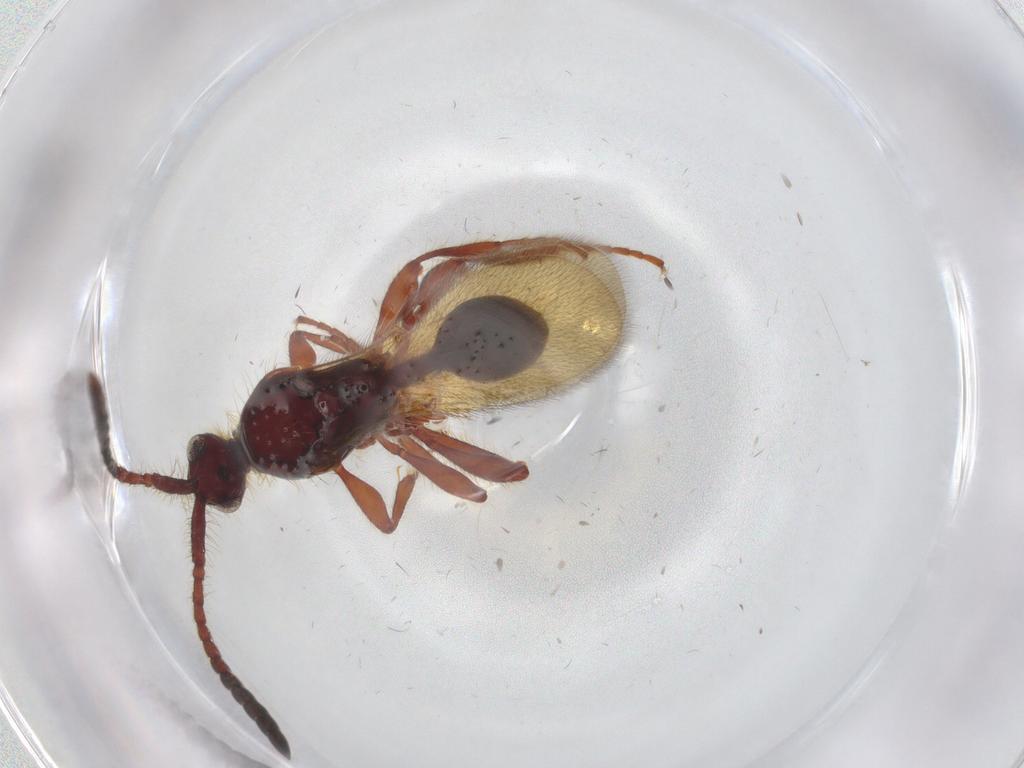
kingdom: Animalia
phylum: Arthropoda
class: Insecta
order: Hymenoptera
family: Diapriidae
